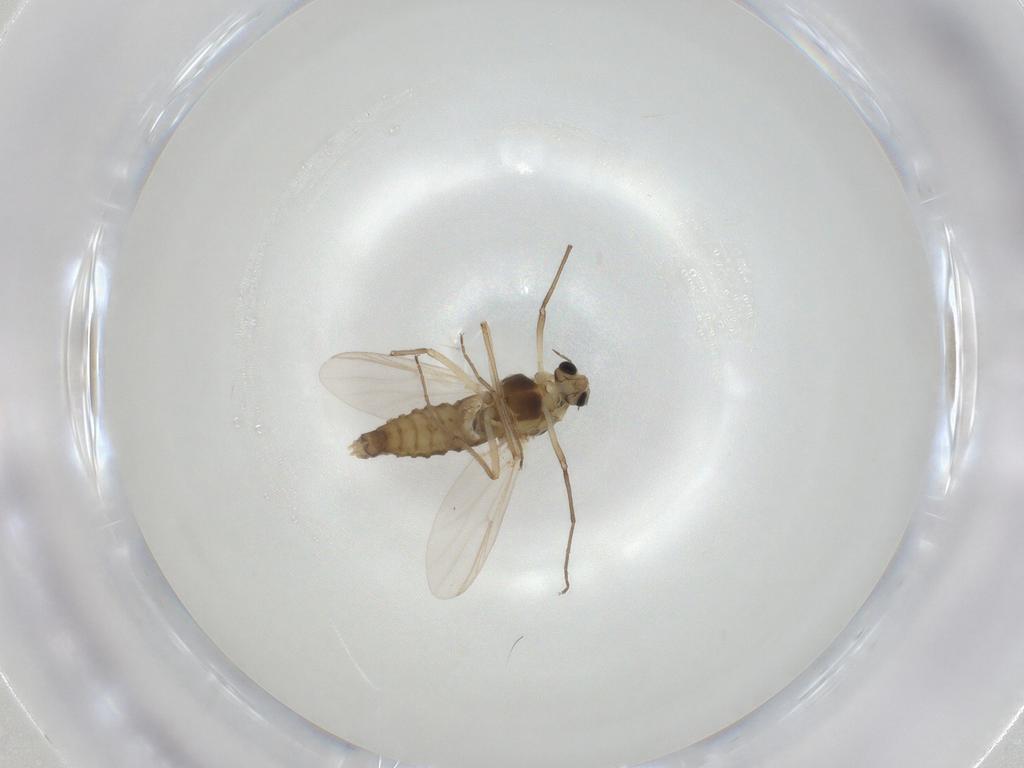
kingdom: Animalia
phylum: Arthropoda
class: Insecta
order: Diptera
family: Chironomidae
